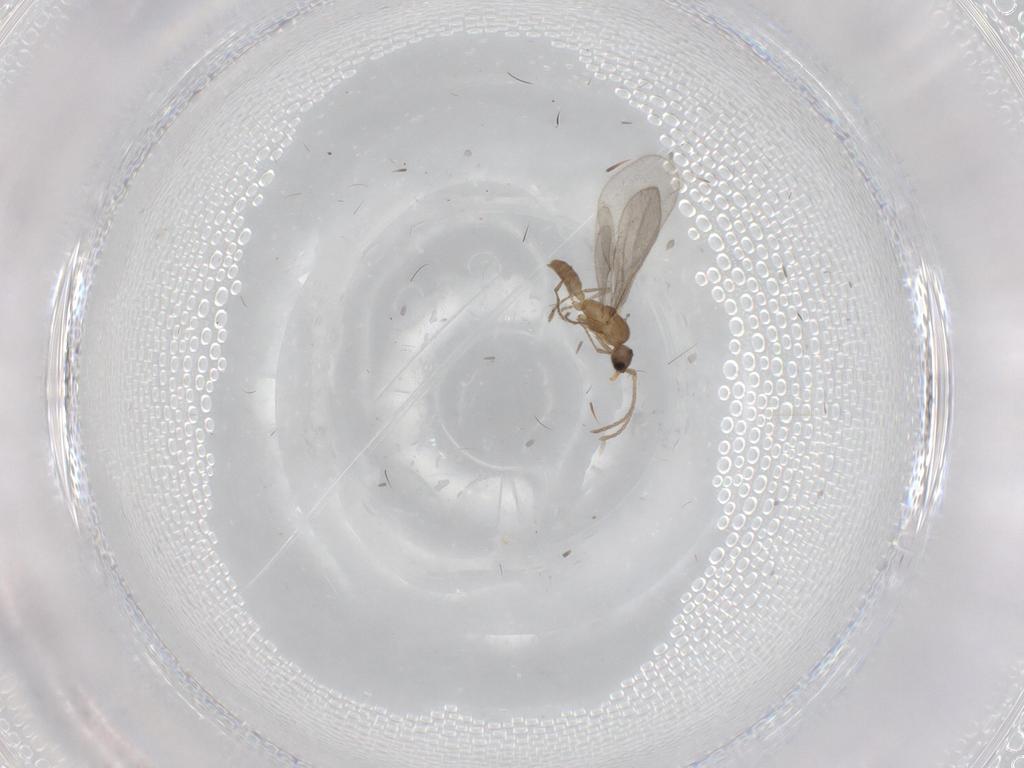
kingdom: Animalia
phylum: Arthropoda
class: Insecta
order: Hymenoptera
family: Formicidae
